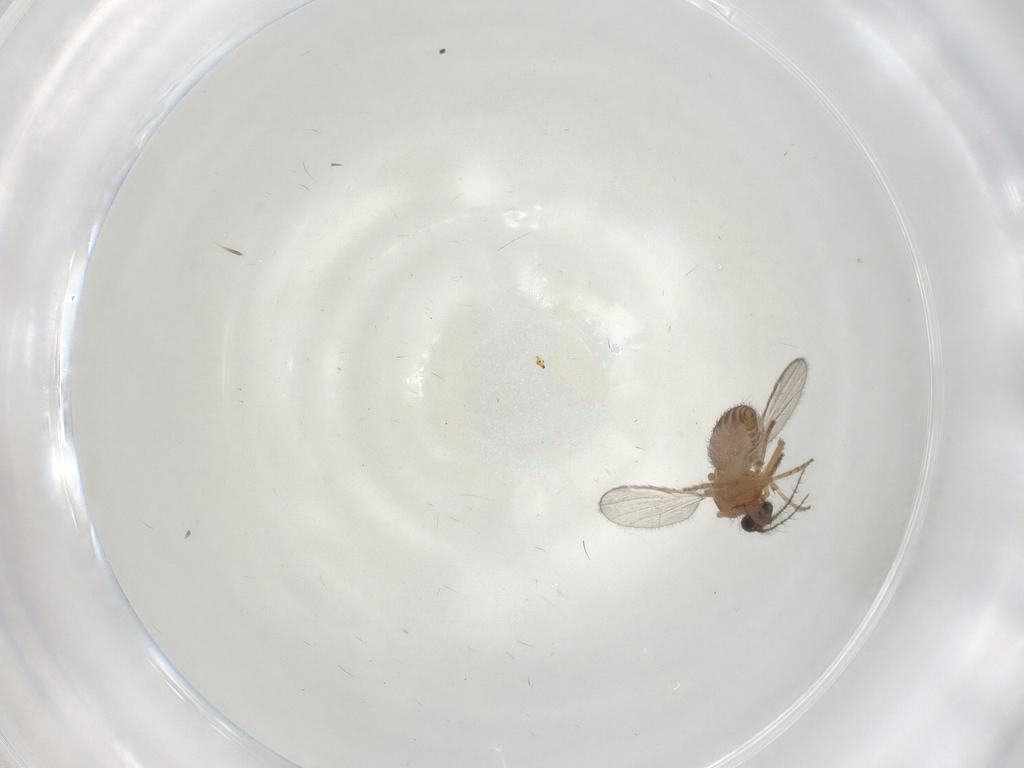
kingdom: Animalia
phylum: Arthropoda
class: Insecta
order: Diptera
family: Ceratopogonidae
